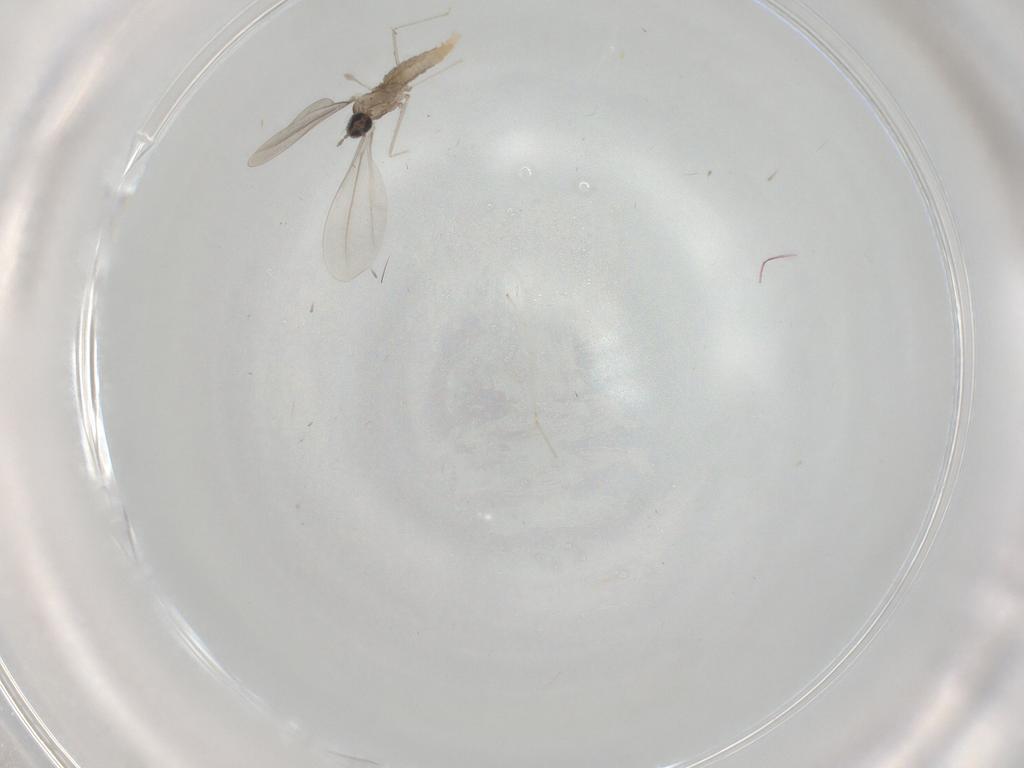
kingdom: Animalia
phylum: Arthropoda
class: Insecta
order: Diptera
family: Cecidomyiidae
